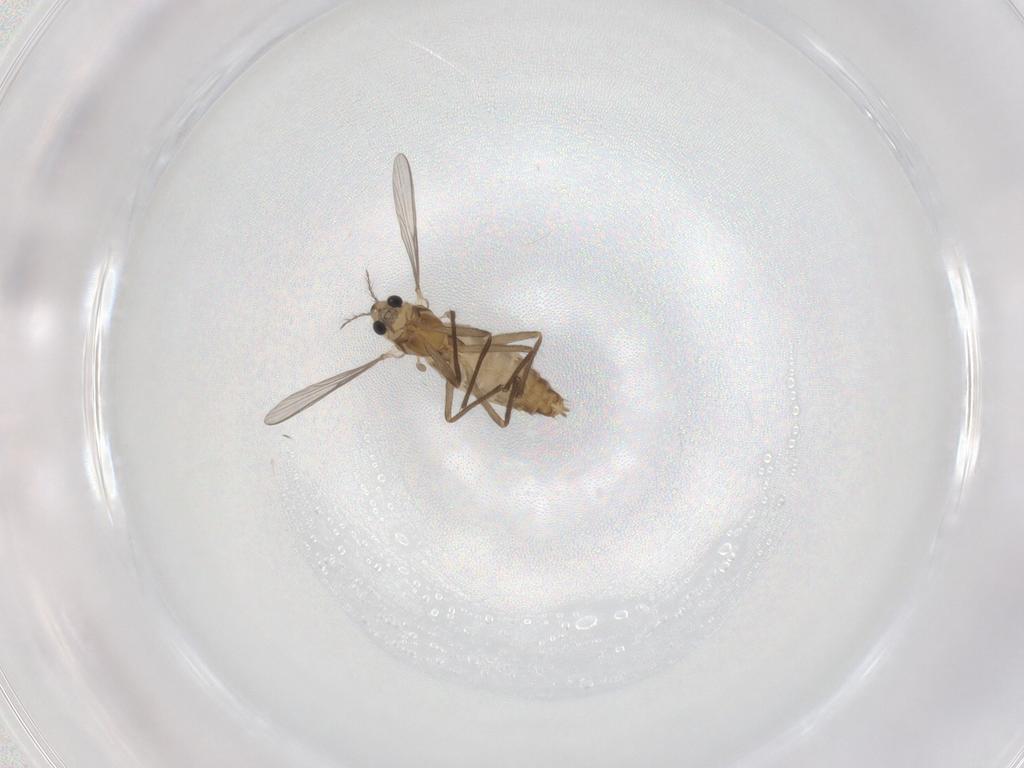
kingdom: Animalia
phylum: Arthropoda
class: Insecta
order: Diptera
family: Chironomidae
